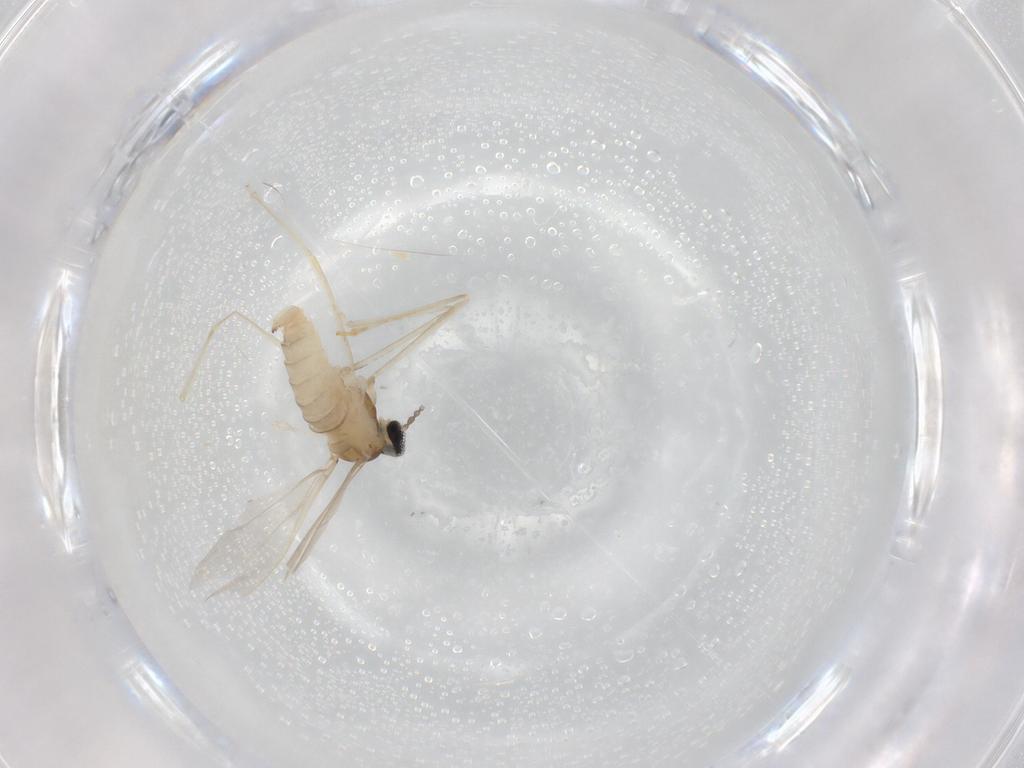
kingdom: Animalia
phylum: Arthropoda
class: Insecta
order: Diptera
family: Cecidomyiidae
